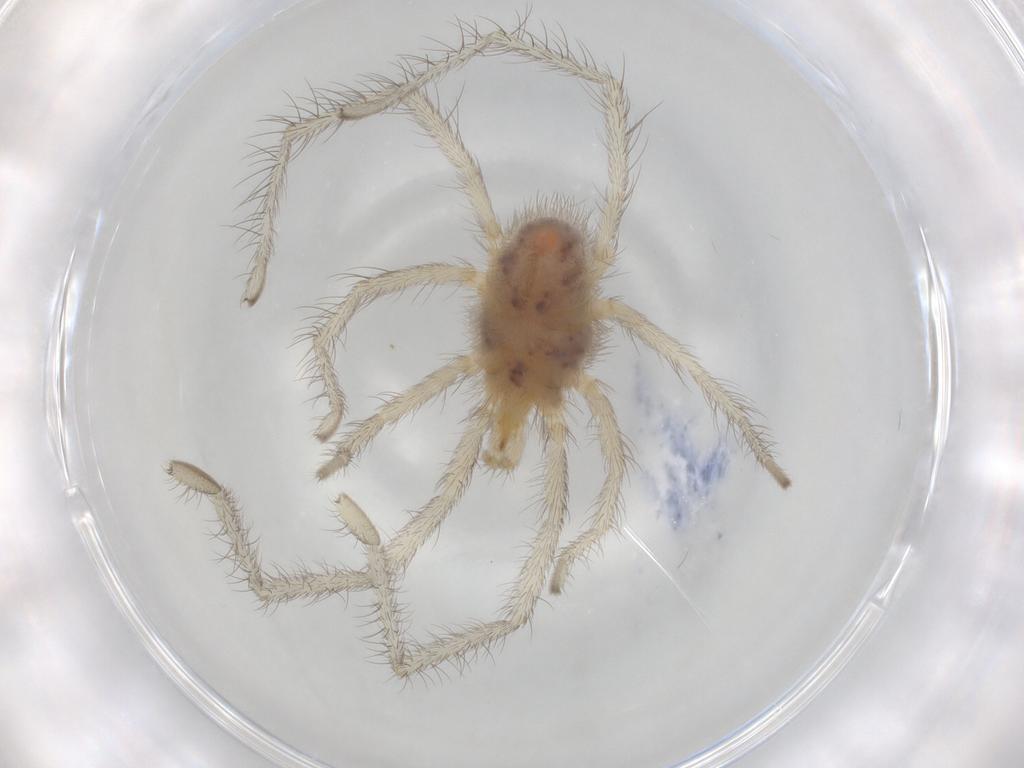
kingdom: Animalia
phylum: Arthropoda
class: Arachnida
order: Trombidiformes
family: Erythraeidae
